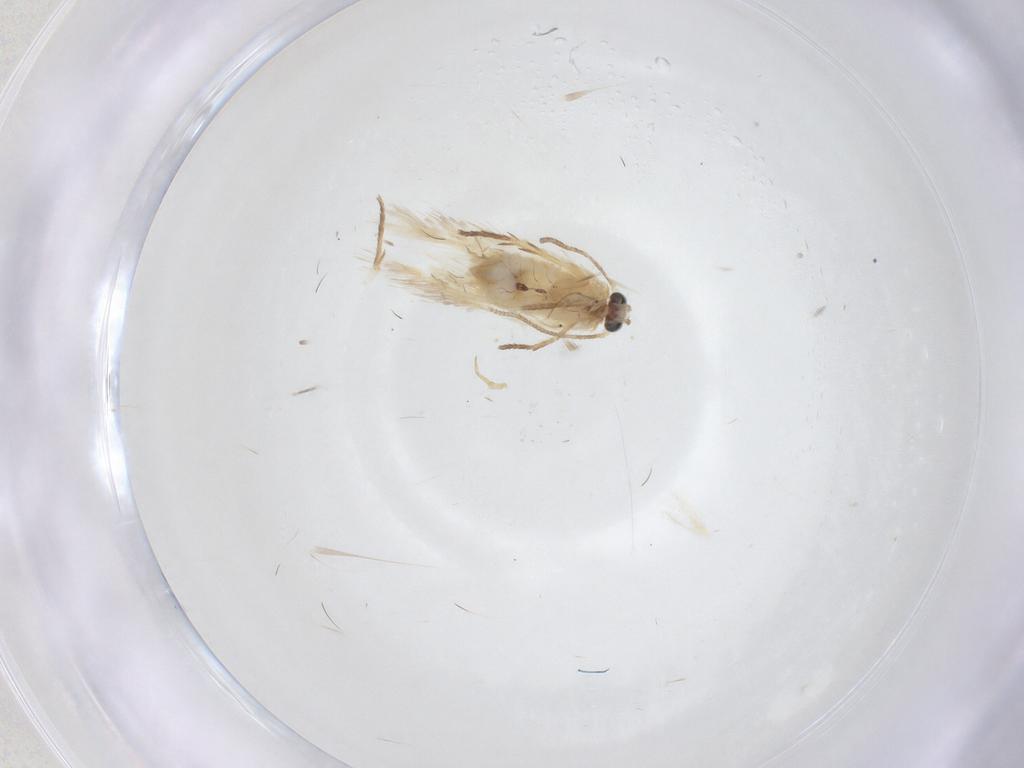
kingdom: Animalia
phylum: Arthropoda
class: Insecta
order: Lepidoptera
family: Nepticulidae
